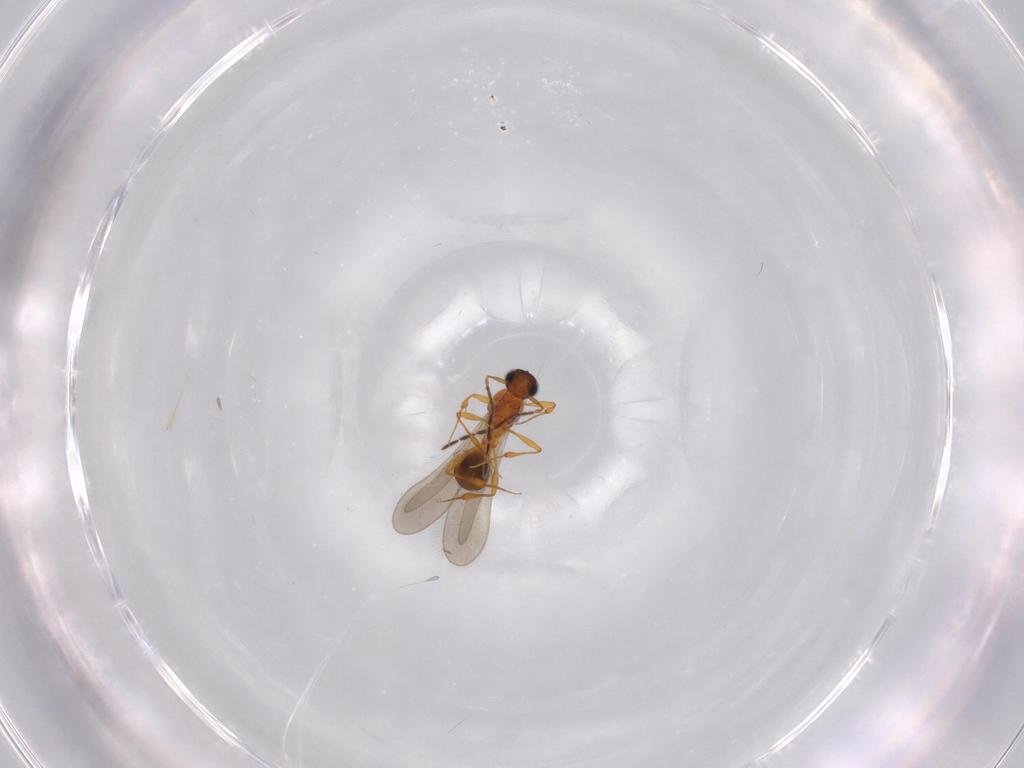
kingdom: Animalia
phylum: Arthropoda
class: Insecta
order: Hymenoptera
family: Platygastridae
